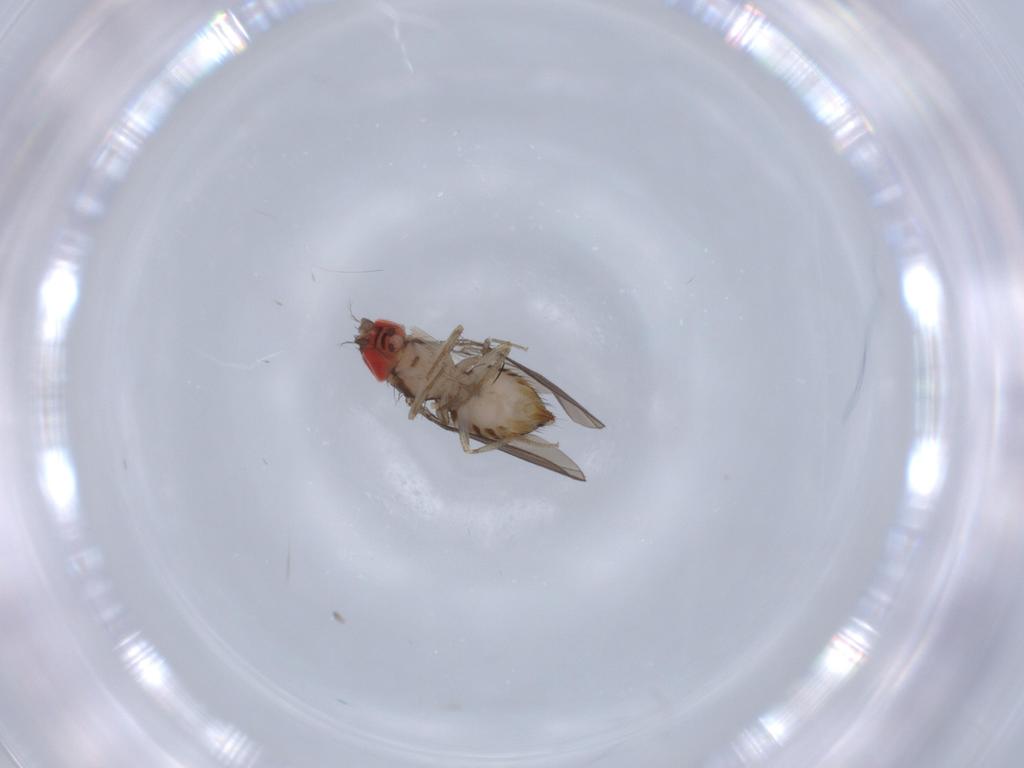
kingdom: Animalia
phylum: Arthropoda
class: Insecta
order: Diptera
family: Drosophilidae
